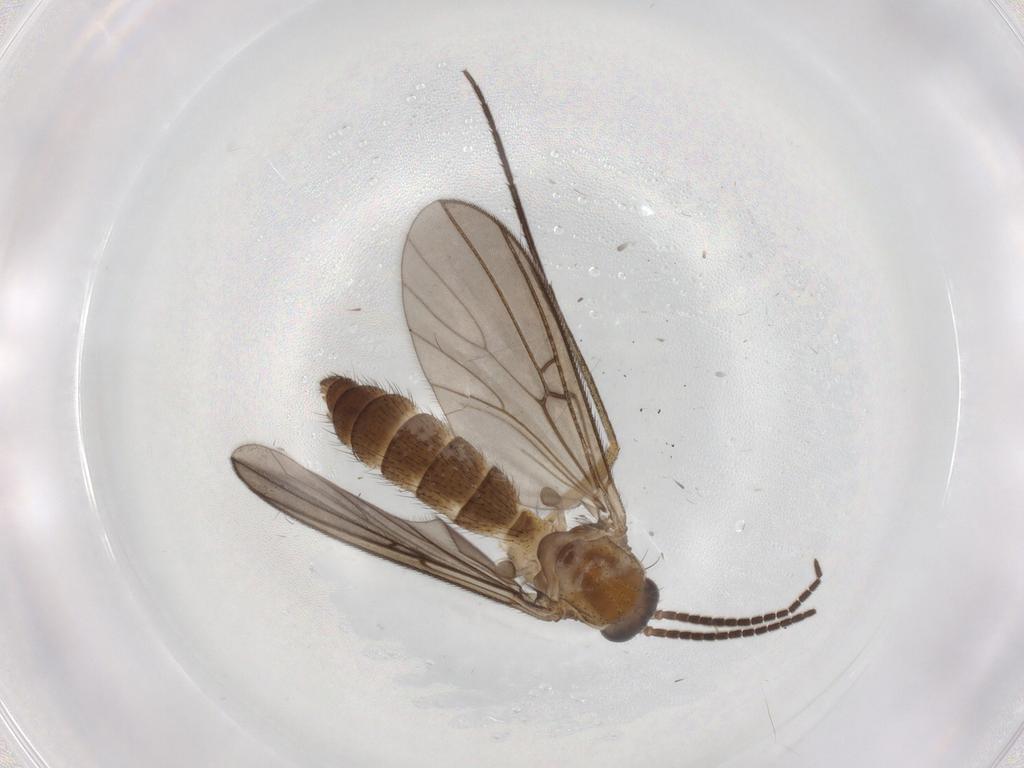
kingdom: Animalia
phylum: Arthropoda
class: Insecta
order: Diptera
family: Mycetophilidae
